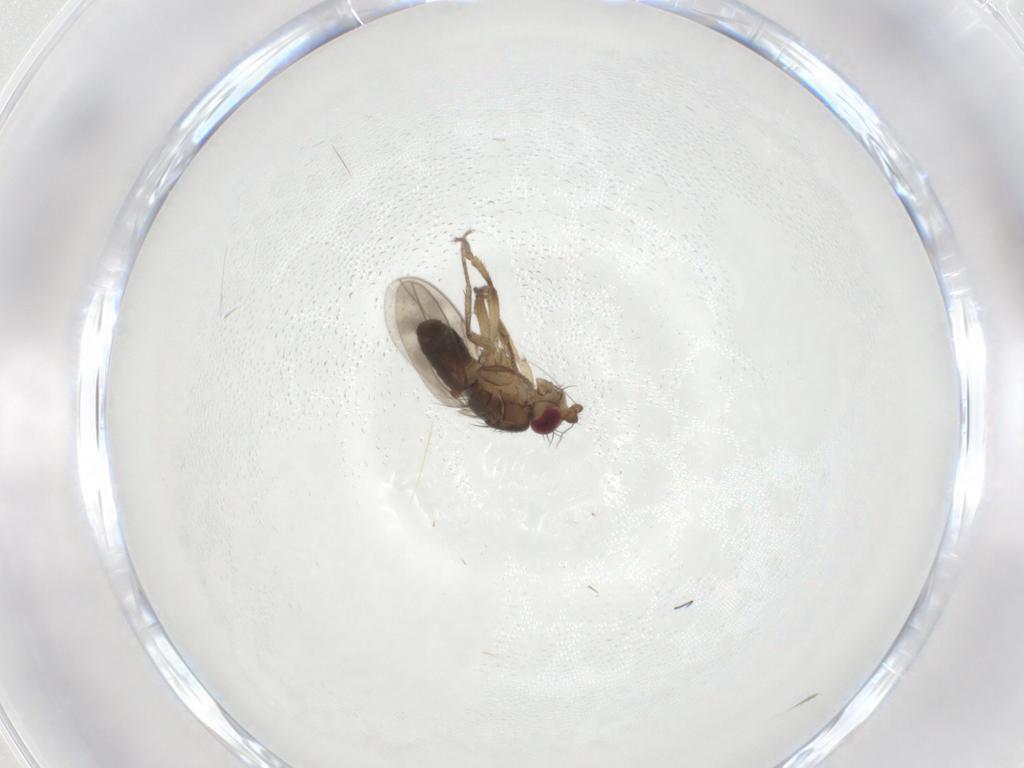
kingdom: Animalia
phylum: Arthropoda
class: Insecta
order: Diptera
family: Sphaeroceridae
